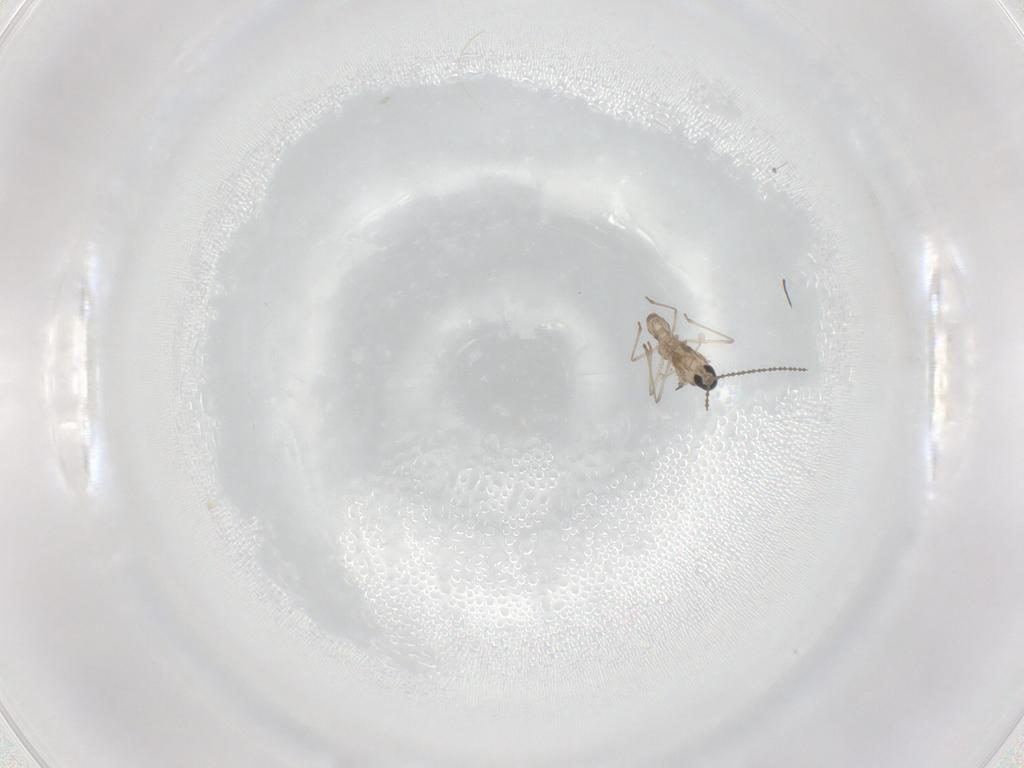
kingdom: Animalia
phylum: Arthropoda
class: Insecta
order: Diptera
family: Cecidomyiidae
